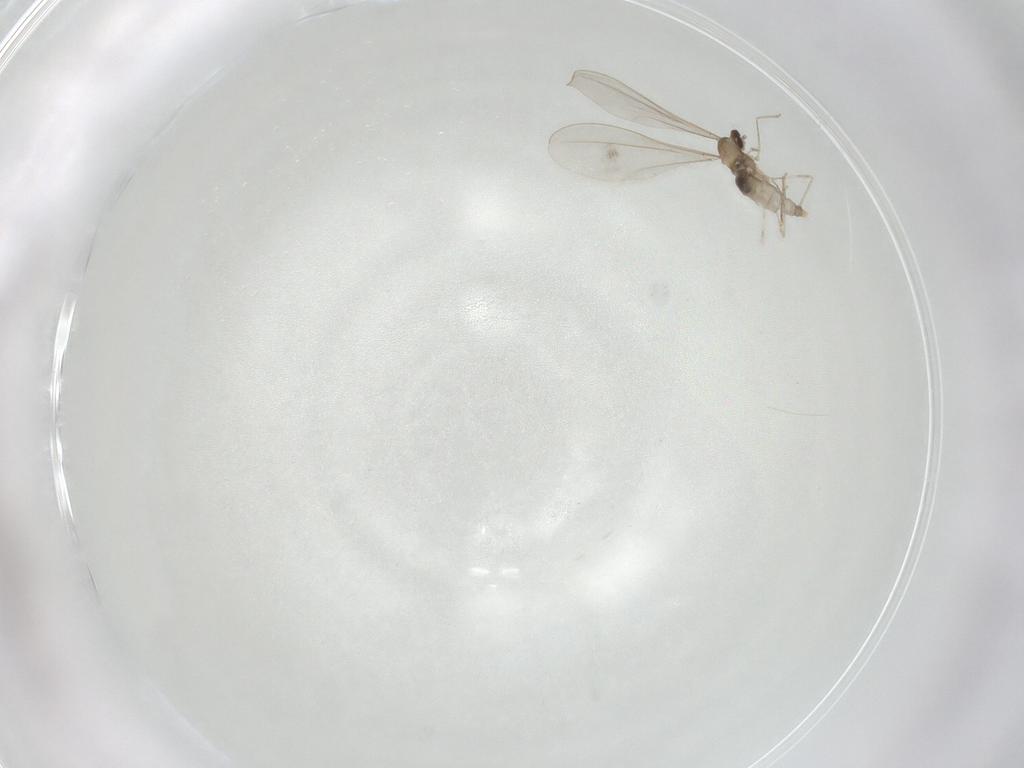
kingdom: Animalia
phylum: Arthropoda
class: Insecta
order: Diptera
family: Cecidomyiidae
